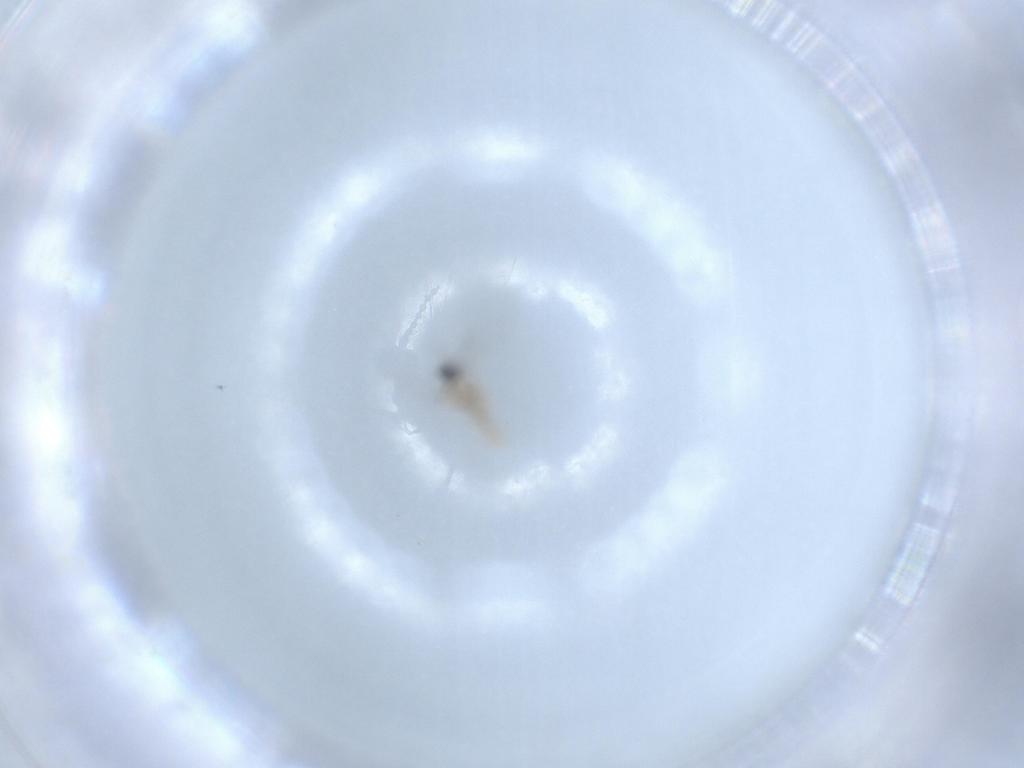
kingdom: Animalia
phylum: Arthropoda
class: Insecta
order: Diptera
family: Cecidomyiidae
